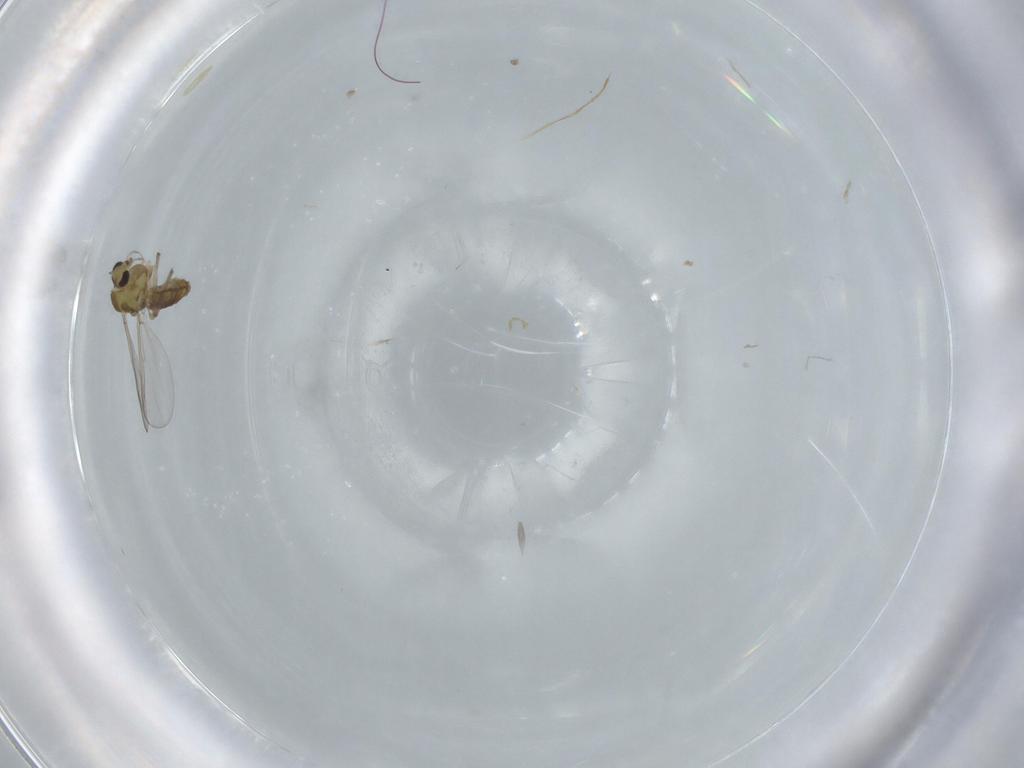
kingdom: Animalia
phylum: Arthropoda
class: Insecta
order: Diptera
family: Chironomidae
